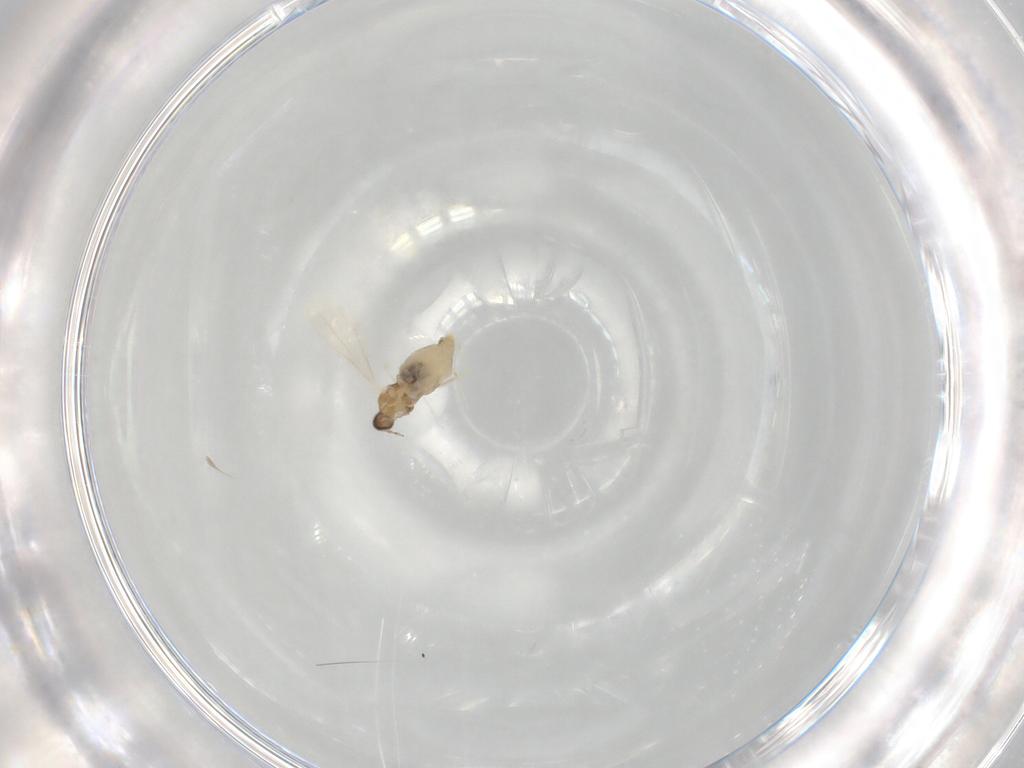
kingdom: Animalia
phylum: Arthropoda
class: Insecta
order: Diptera
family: Cecidomyiidae
